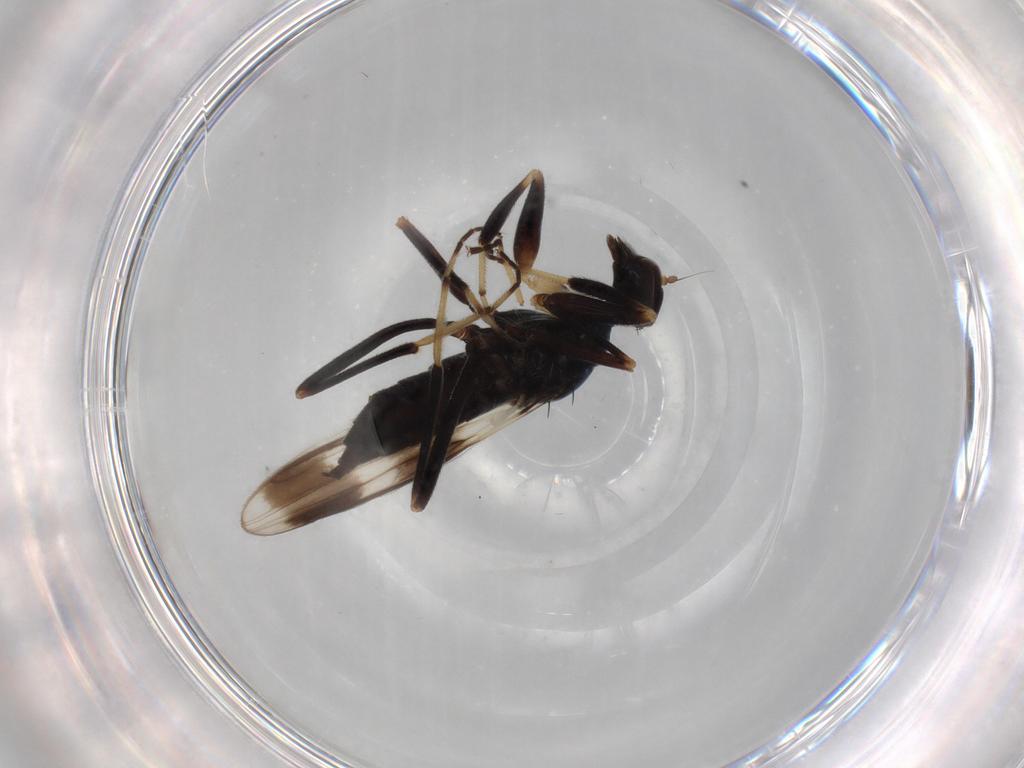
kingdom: Animalia
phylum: Arthropoda
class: Insecta
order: Diptera
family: Hybotidae
